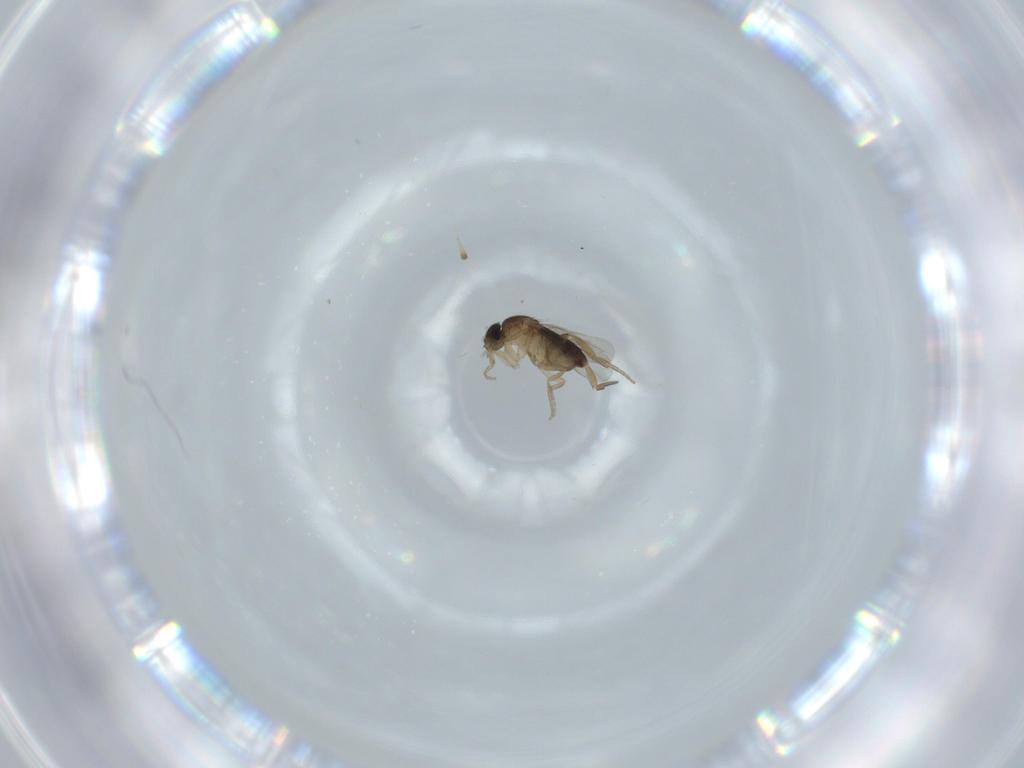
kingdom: Animalia
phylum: Arthropoda
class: Insecta
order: Diptera
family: Phoridae
